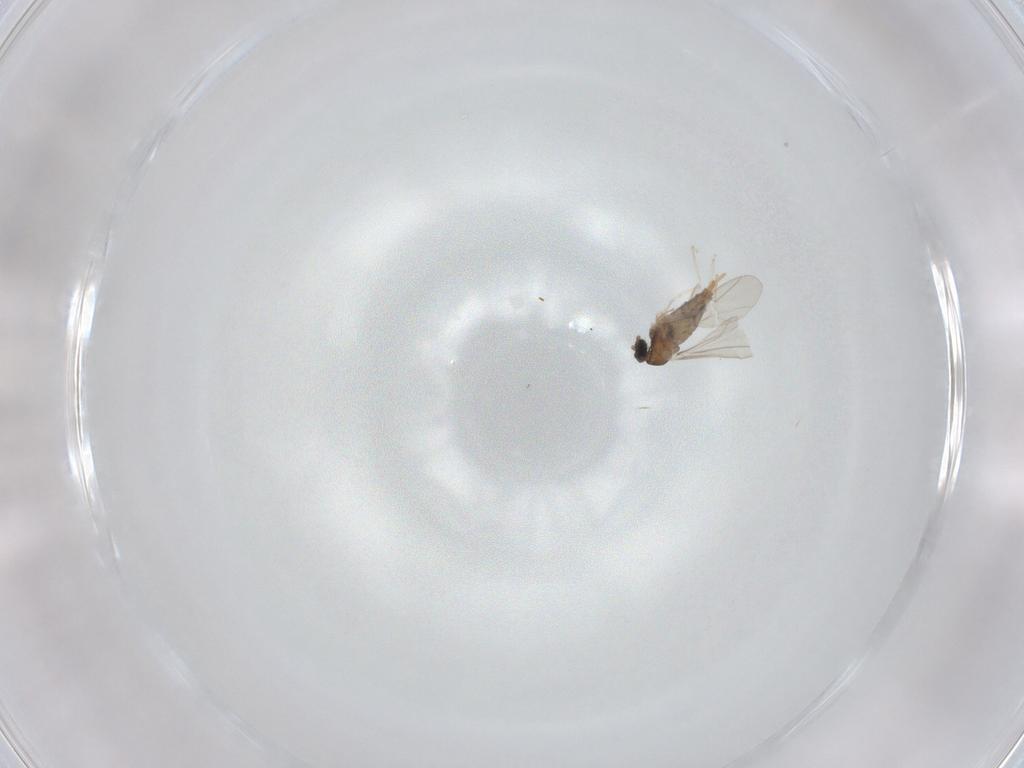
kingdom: Animalia
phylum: Arthropoda
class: Insecta
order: Diptera
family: Cecidomyiidae
